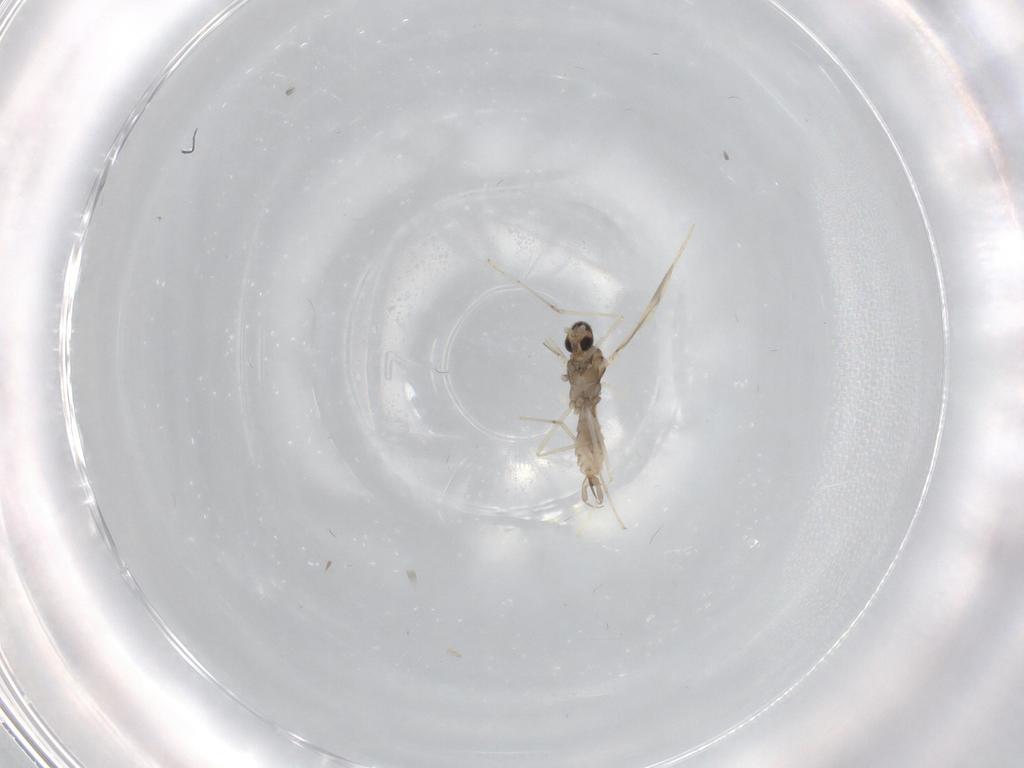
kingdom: Animalia
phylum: Arthropoda
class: Insecta
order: Diptera
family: Cecidomyiidae
